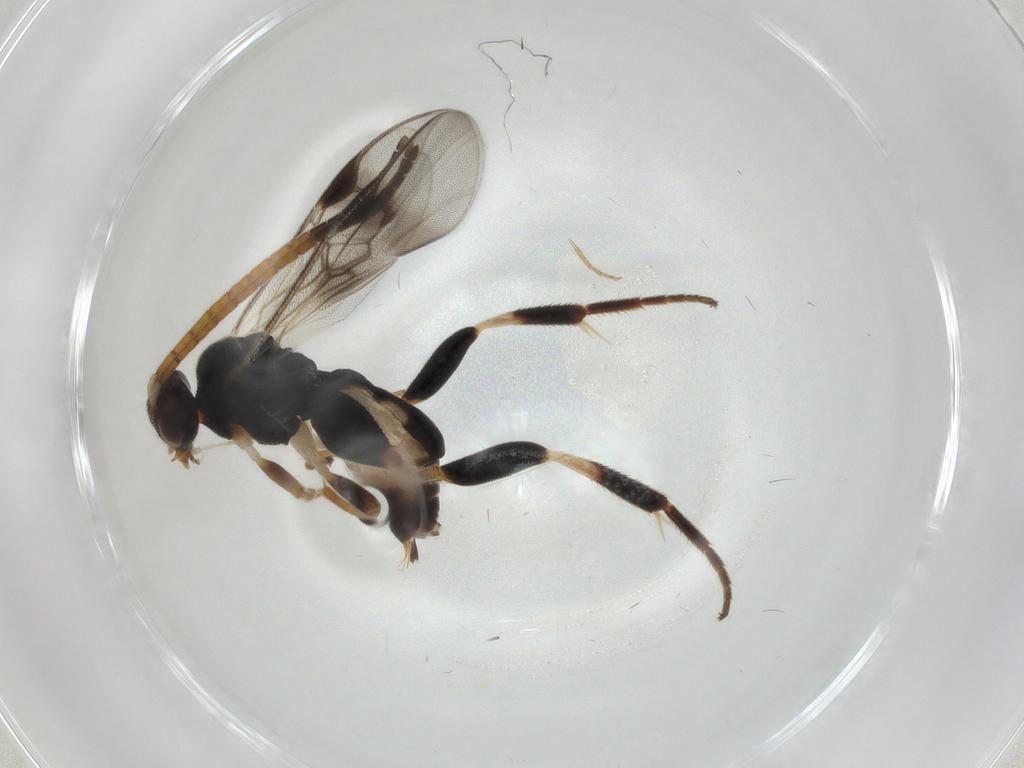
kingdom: Animalia
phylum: Arthropoda
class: Insecta
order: Hymenoptera
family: Braconidae
